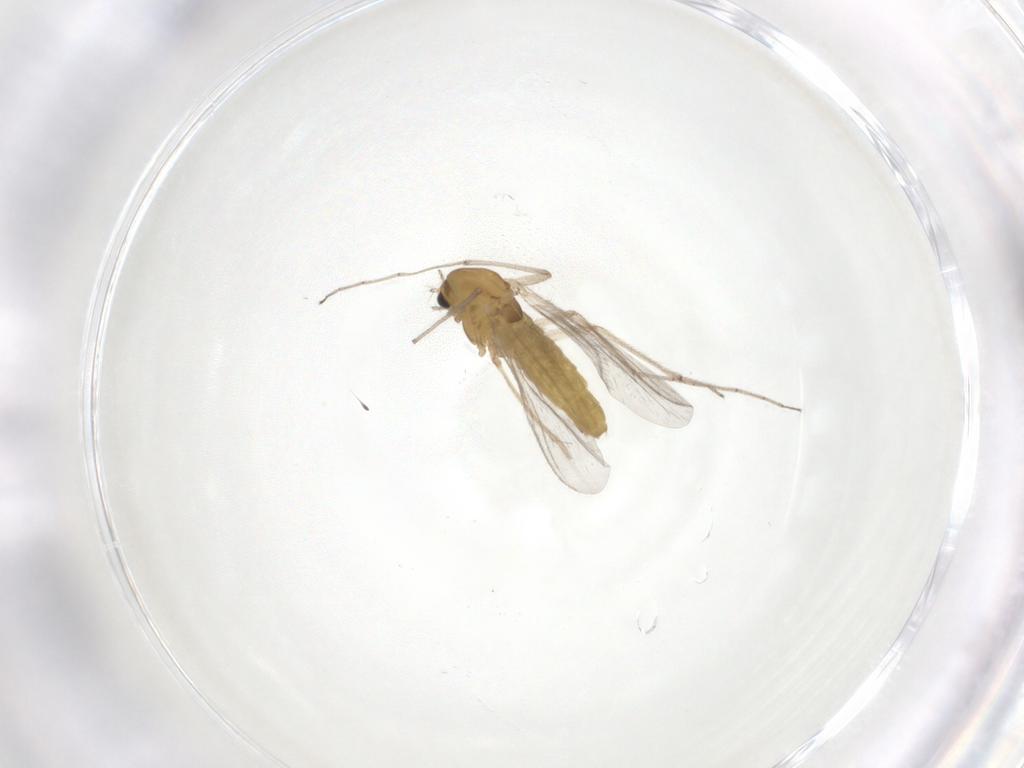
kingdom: Animalia
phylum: Arthropoda
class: Insecta
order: Diptera
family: Chironomidae
